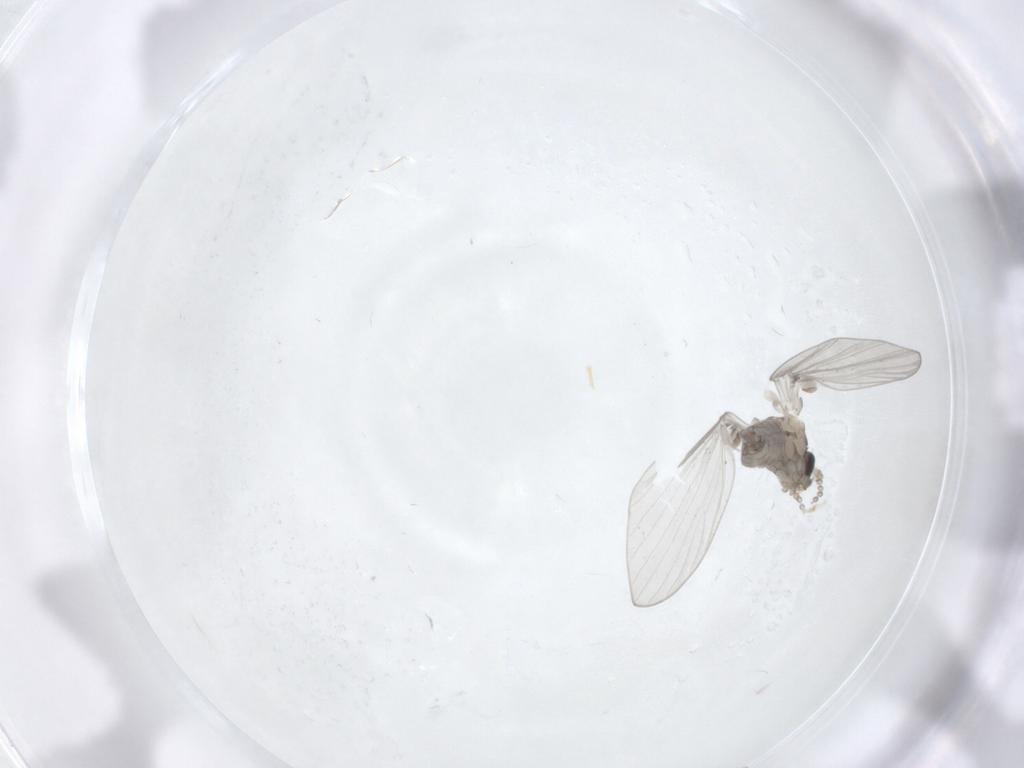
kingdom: Animalia
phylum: Arthropoda
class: Insecta
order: Diptera
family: Psychodidae
